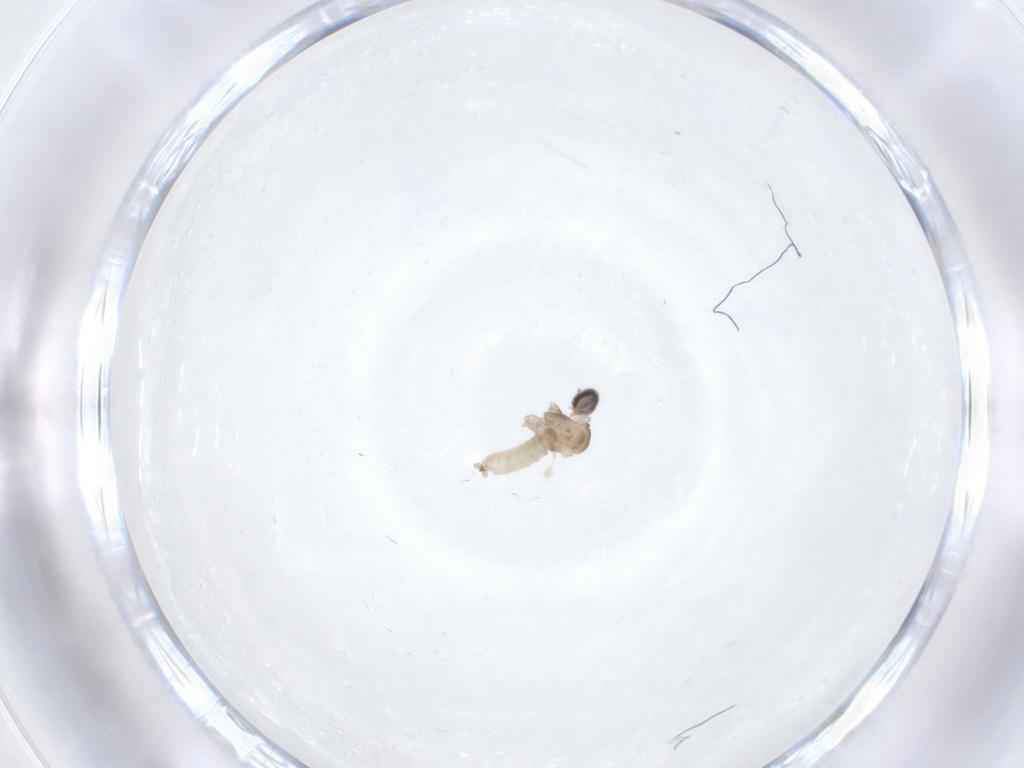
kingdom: Animalia
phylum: Arthropoda
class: Insecta
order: Diptera
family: Cecidomyiidae
